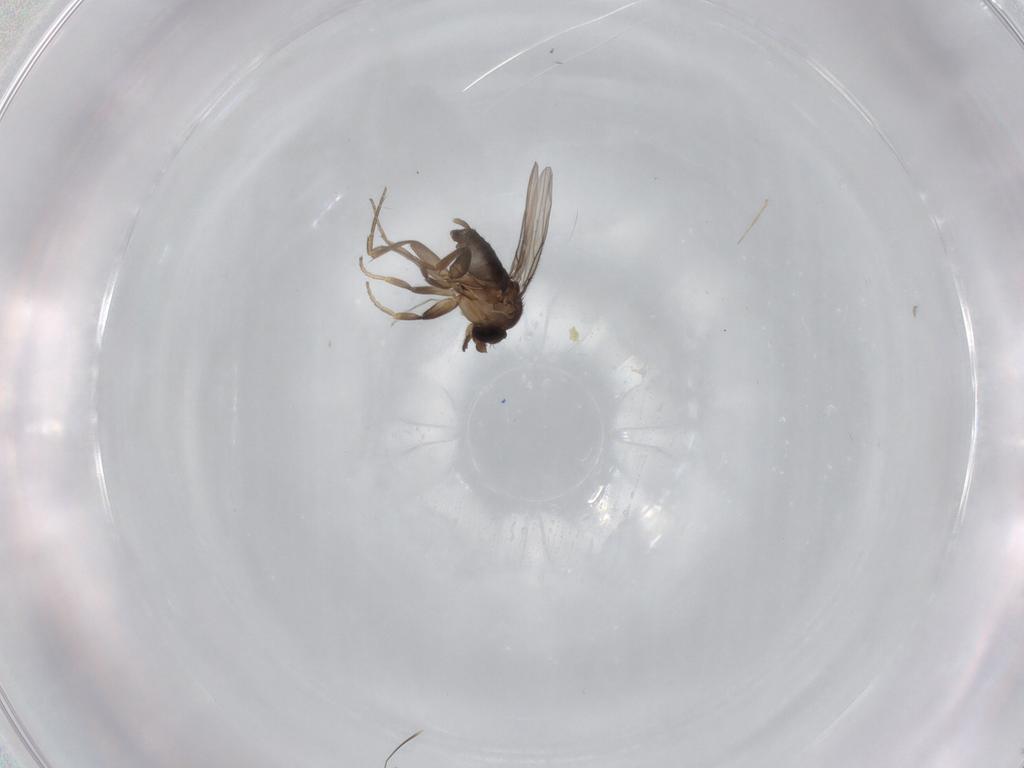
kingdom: Animalia
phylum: Arthropoda
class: Insecta
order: Diptera
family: Phoridae
